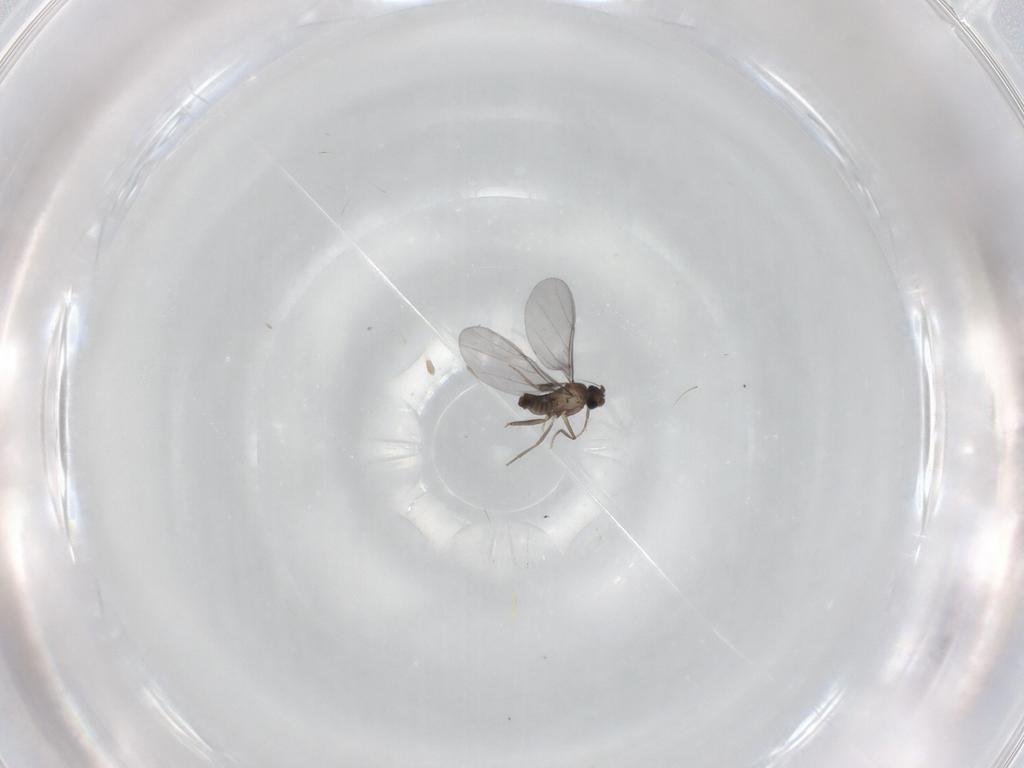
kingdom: Animalia
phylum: Arthropoda
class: Insecta
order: Diptera
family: Phoridae
